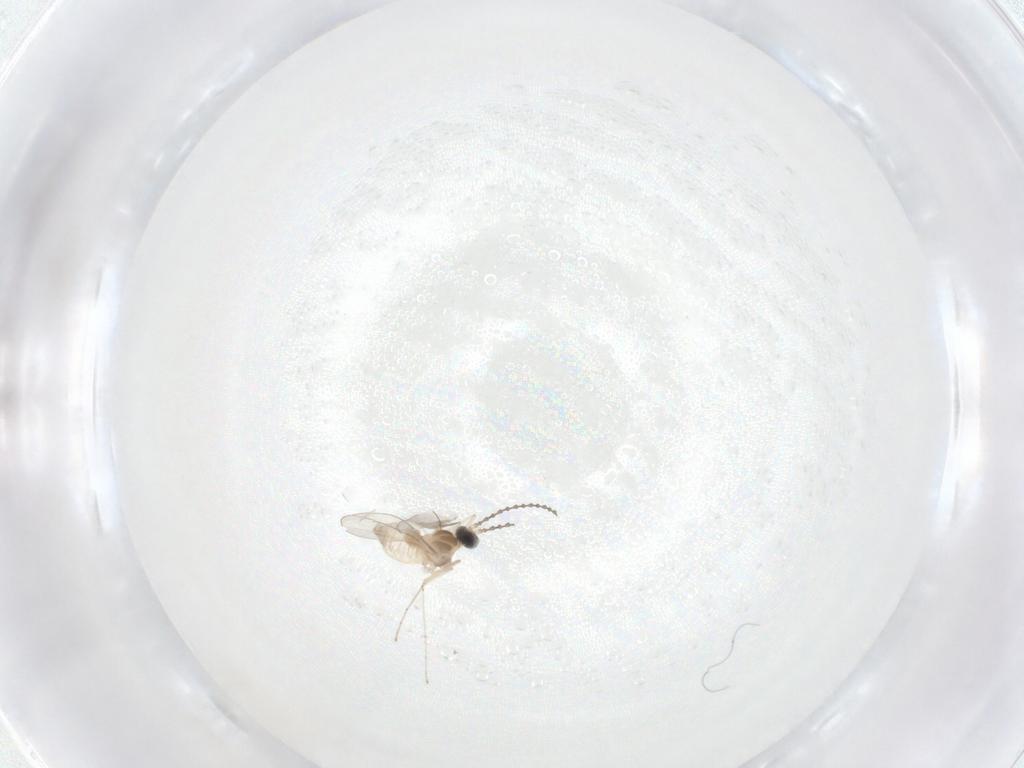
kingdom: Animalia
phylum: Arthropoda
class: Insecta
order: Diptera
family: Cecidomyiidae
